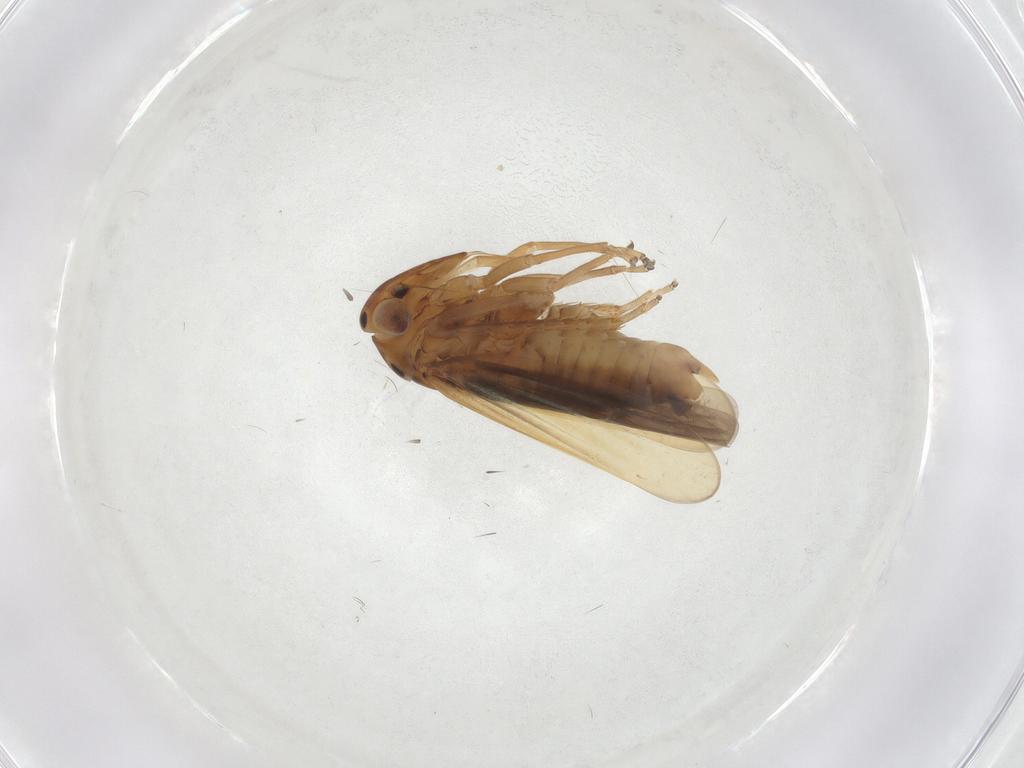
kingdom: Animalia
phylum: Arthropoda
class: Insecta
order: Hemiptera
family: Cicadellidae
